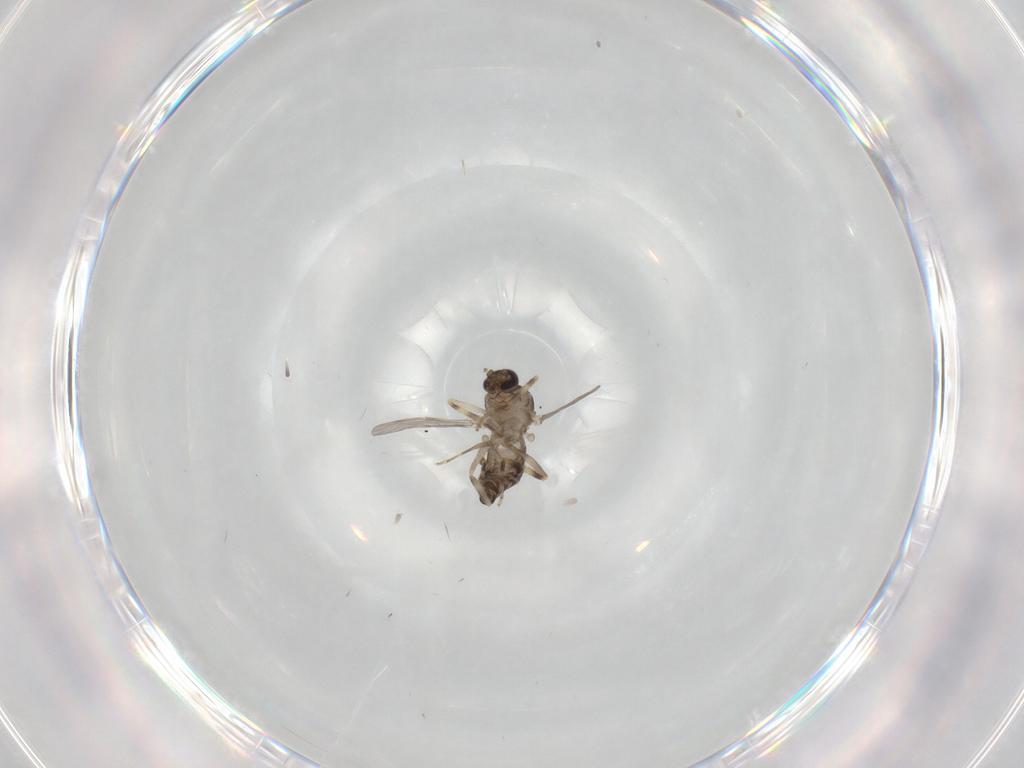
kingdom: Animalia
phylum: Arthropoda
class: Insecta
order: Diptera
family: Ceratopogonidae
